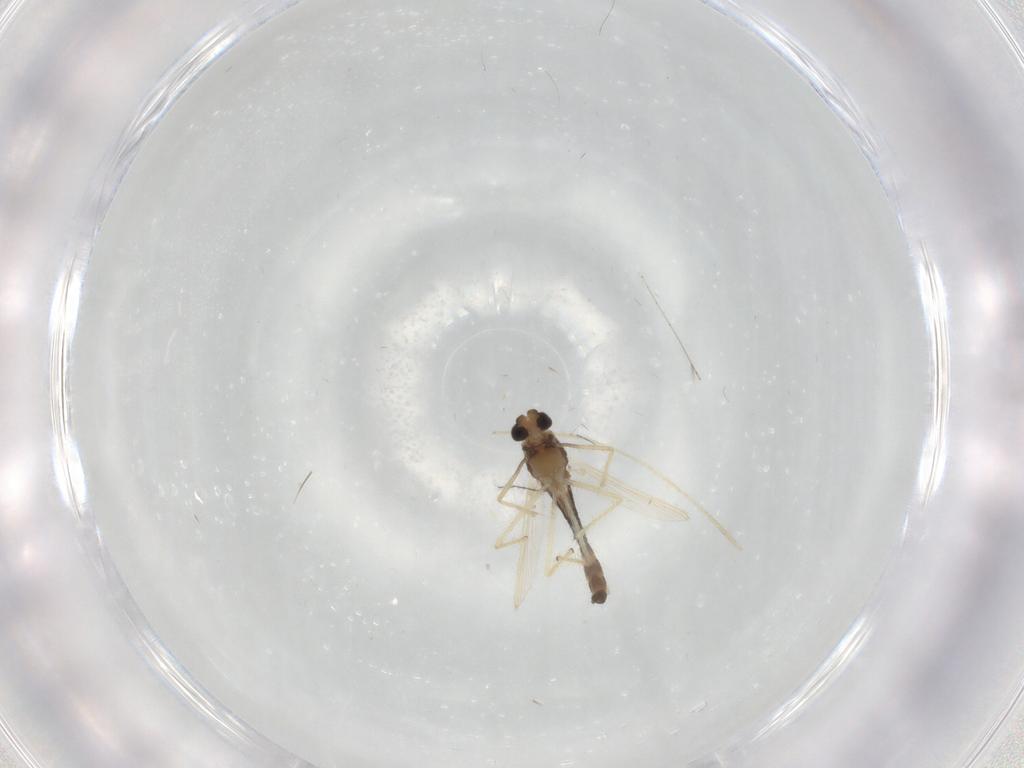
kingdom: Animalia
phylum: Arthropoda
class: Insecta
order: Diptera
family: Chironomidae
